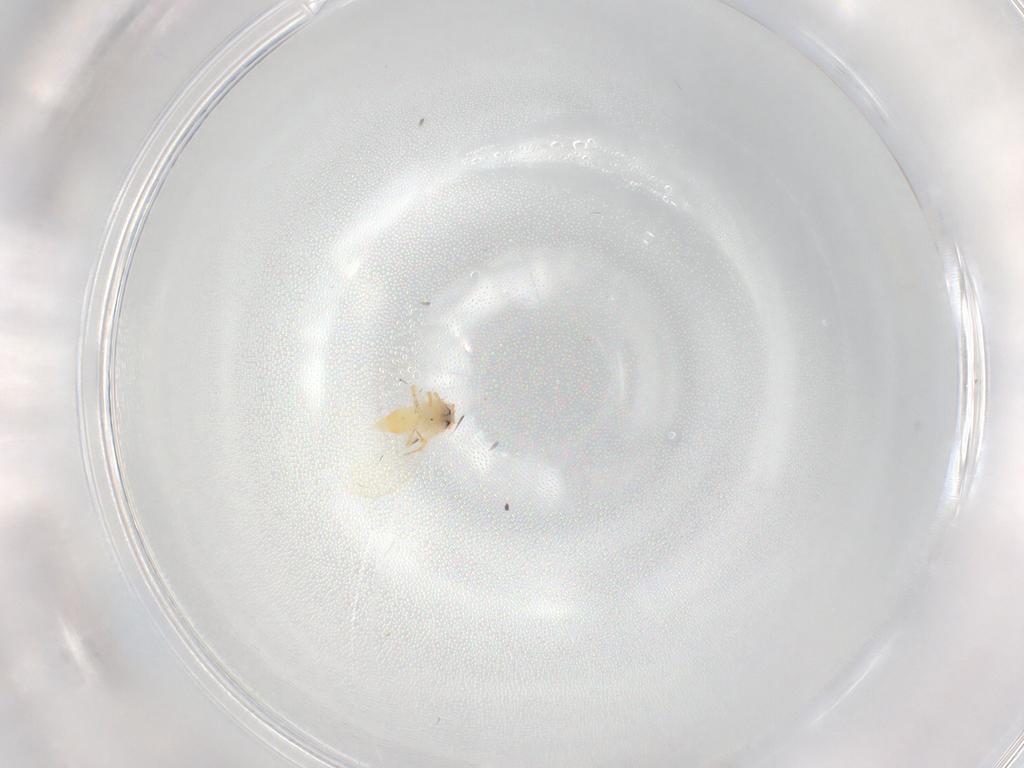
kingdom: Animalia
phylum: Arthropoda
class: Insecta
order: Hemiptera
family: Aleyrodidae
